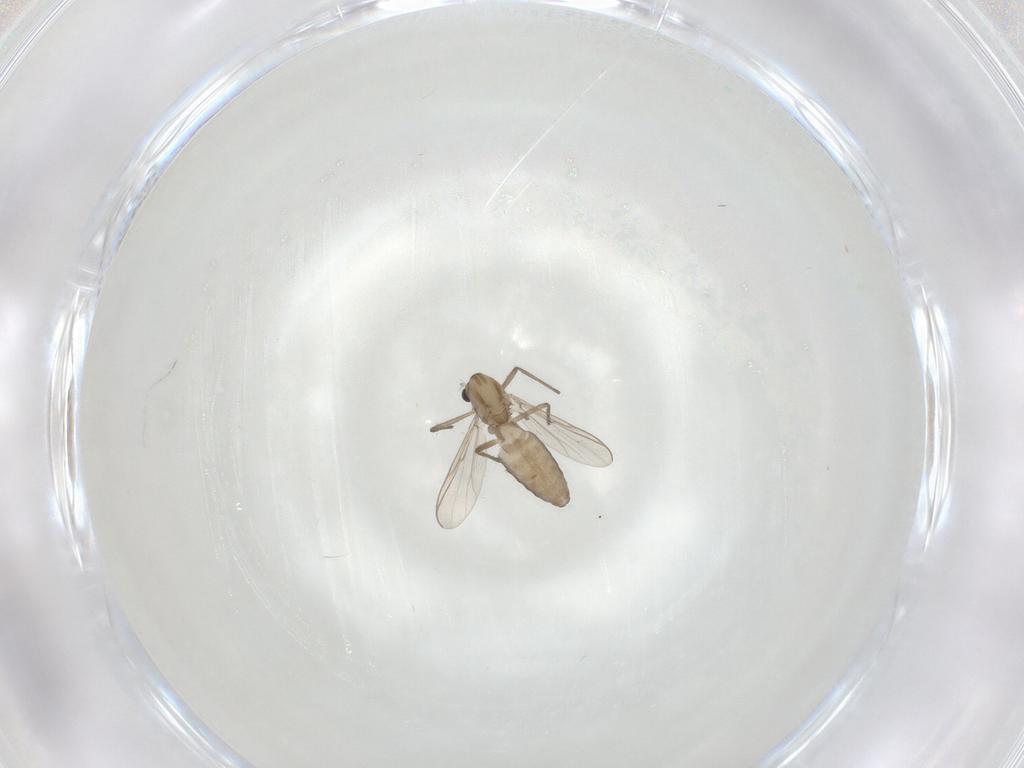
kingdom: Animalia
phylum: Arthropoda
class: Insecta
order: Diptera
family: Chironomidae
